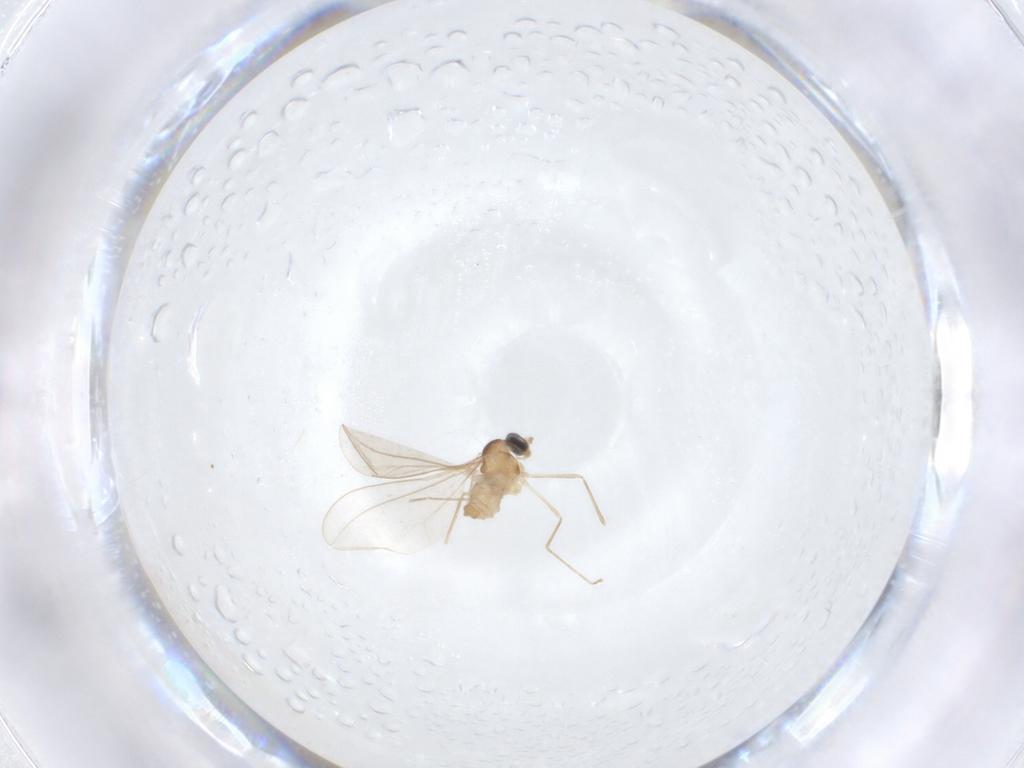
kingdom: Animalia
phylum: Arthropoda
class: Insecta
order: Diptera
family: Cecidomyiidae
